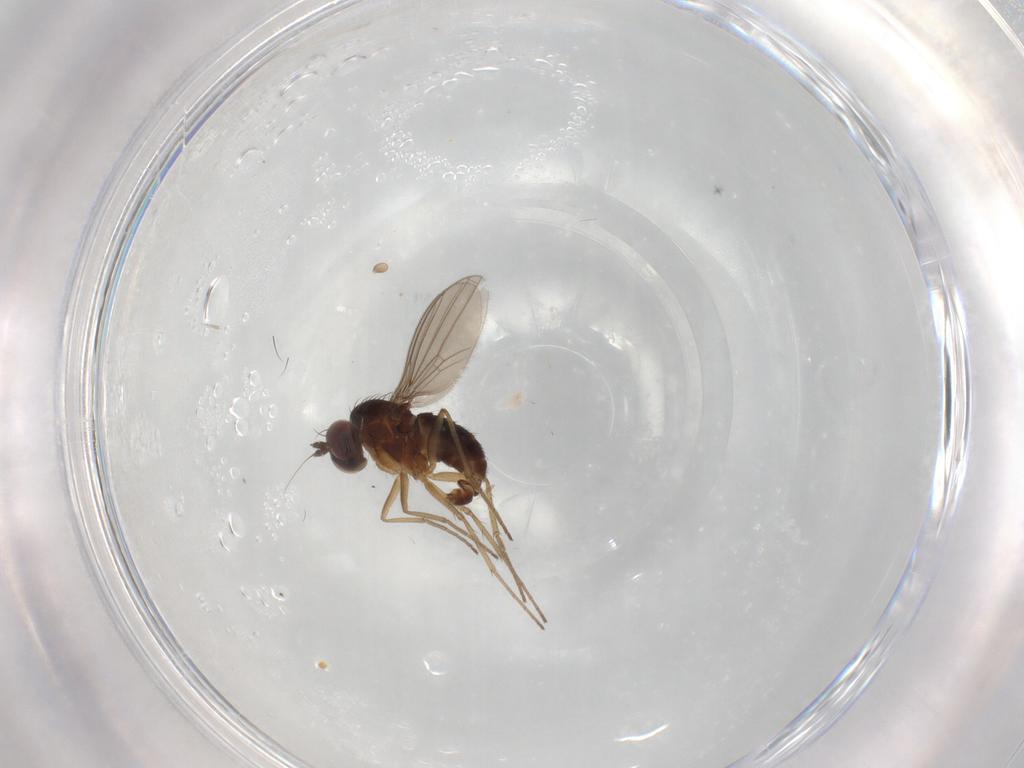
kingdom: Animalia
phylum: Arthropoda
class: Insecta
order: Diptera
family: Dolichopodidae
